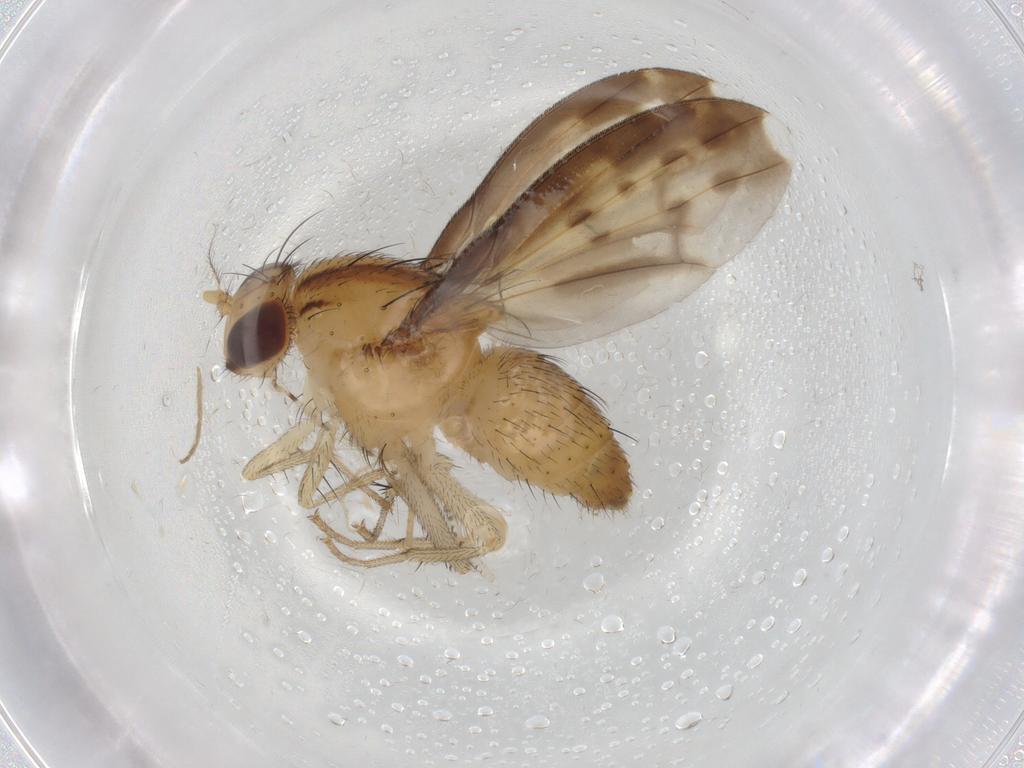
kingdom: Animalia
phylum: Arthropoda
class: Insecta
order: Diptera
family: Chaoboridae
